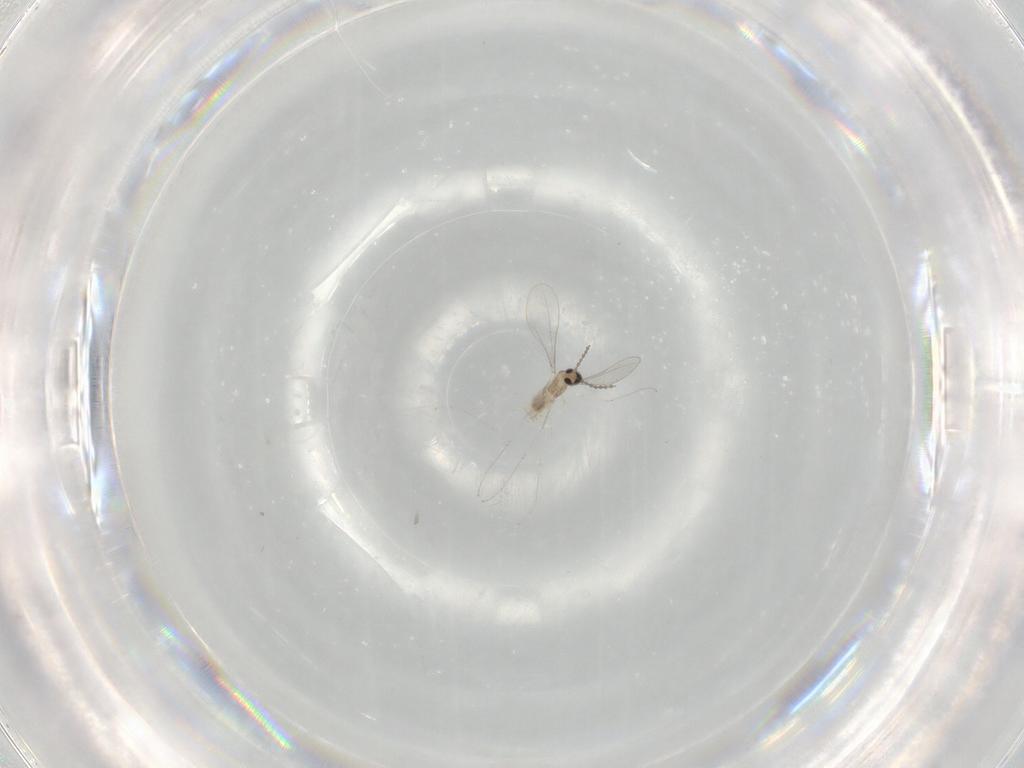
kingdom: Animalia
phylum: Arthropoda
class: Insecta
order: Diptera
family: Cecidomyiidae
